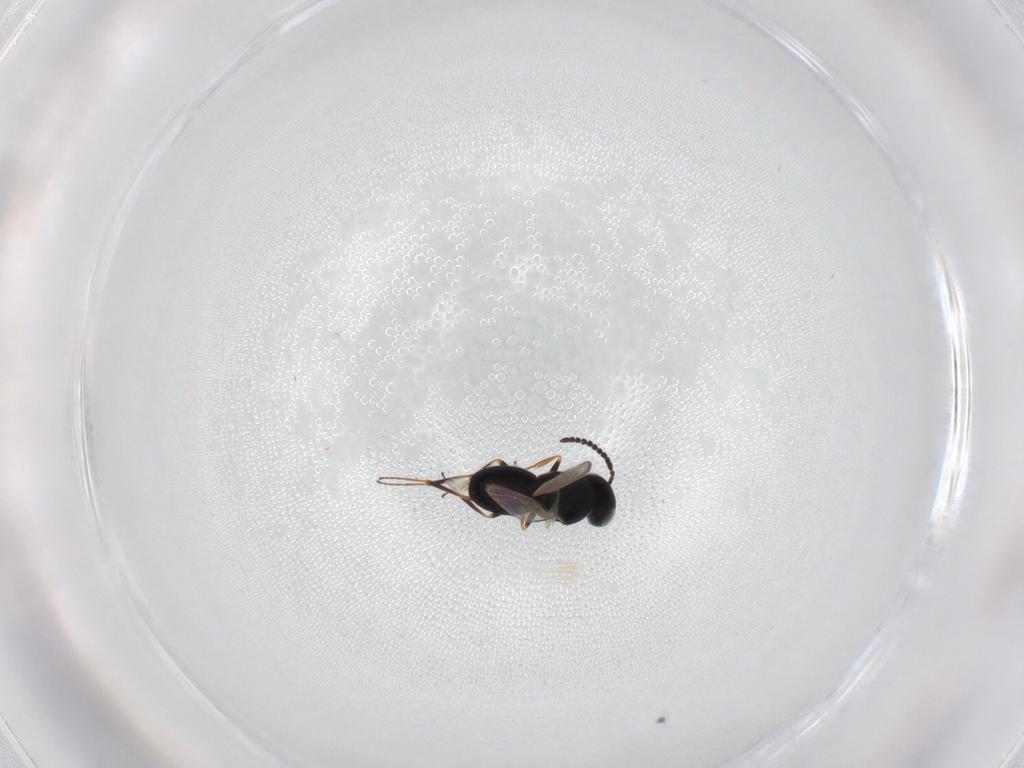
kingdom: Animalia
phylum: Arthropoda
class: Insecta
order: Hymenoptera
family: Scelionidae
